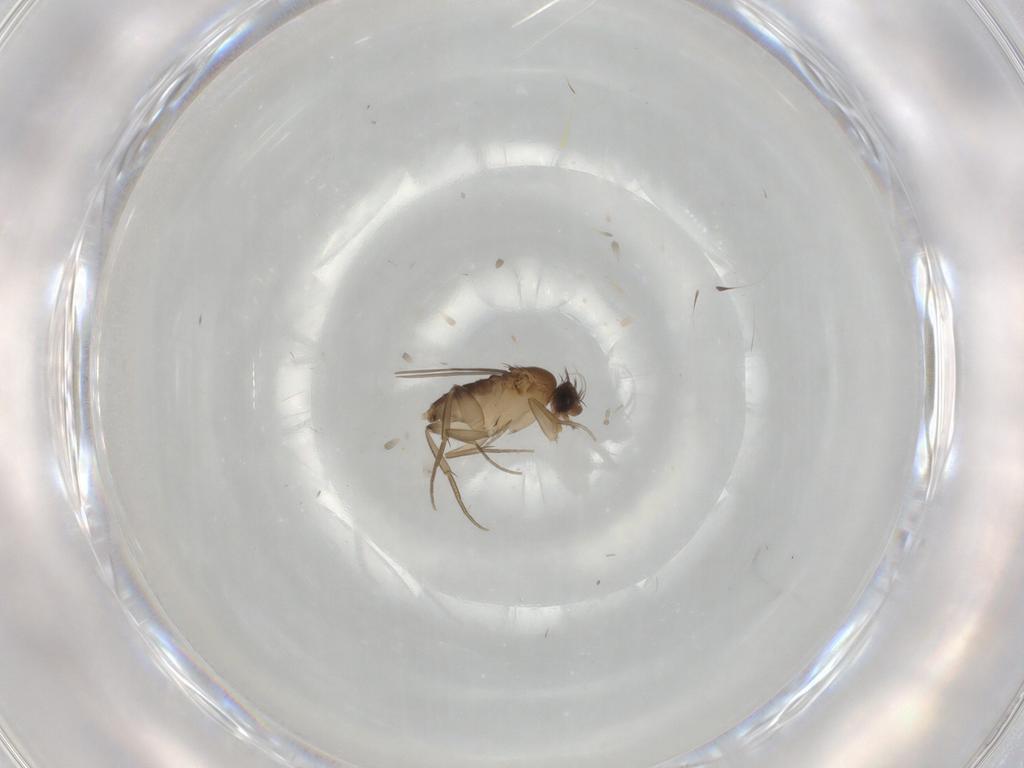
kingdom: Animalia
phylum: Arthropoda
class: Insecta
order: Diptera
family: Phoridae
